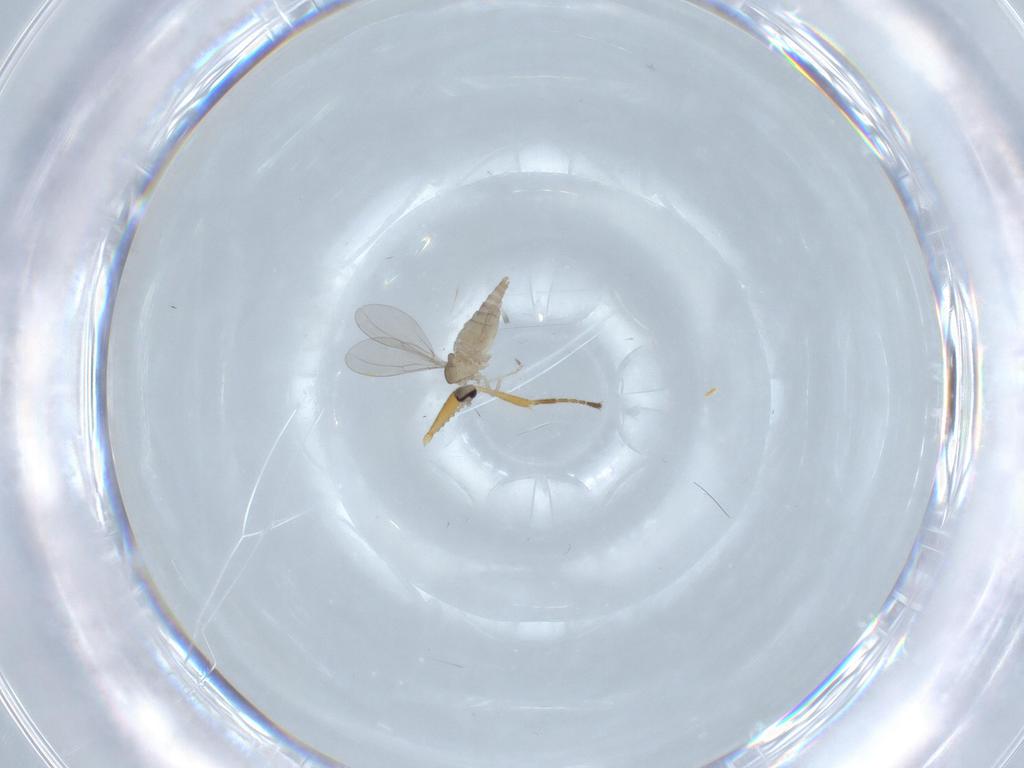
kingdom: Animalia
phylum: Arthropoda
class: Insecta
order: Diptera
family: Cecidomyiidae
